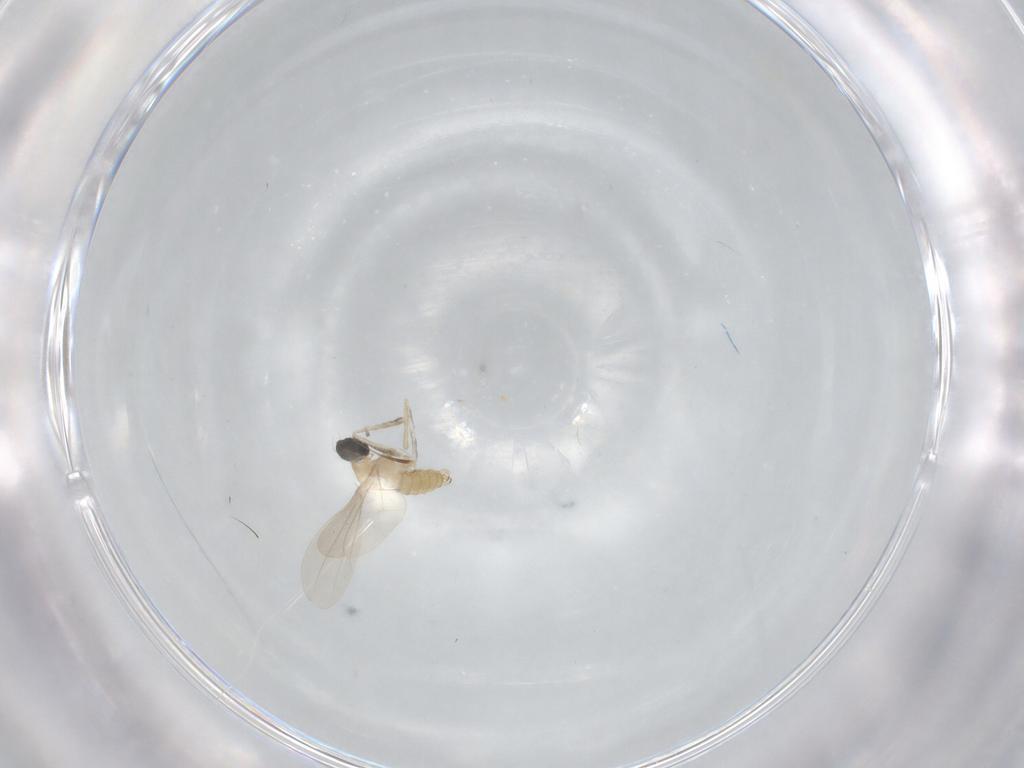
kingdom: Animalia
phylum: Arthropoda
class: Insecta
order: Diptera
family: Cecidomyiidae
